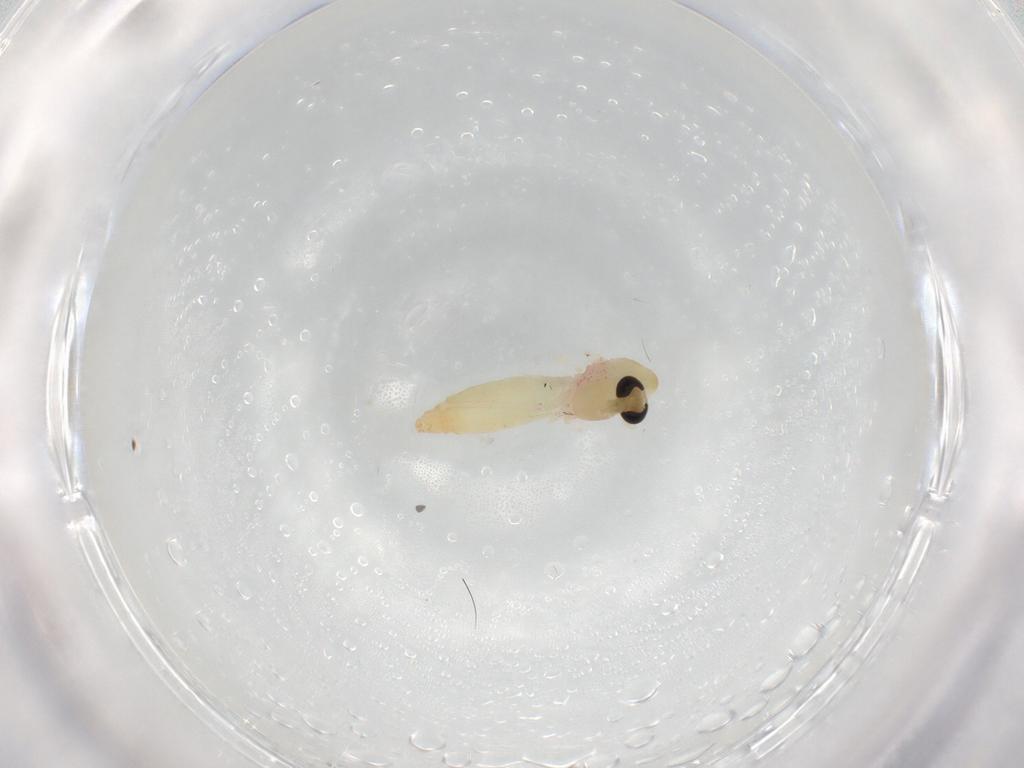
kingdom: Animalia
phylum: Arthropoda
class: Insecta
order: Diptera
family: Chironomidae
